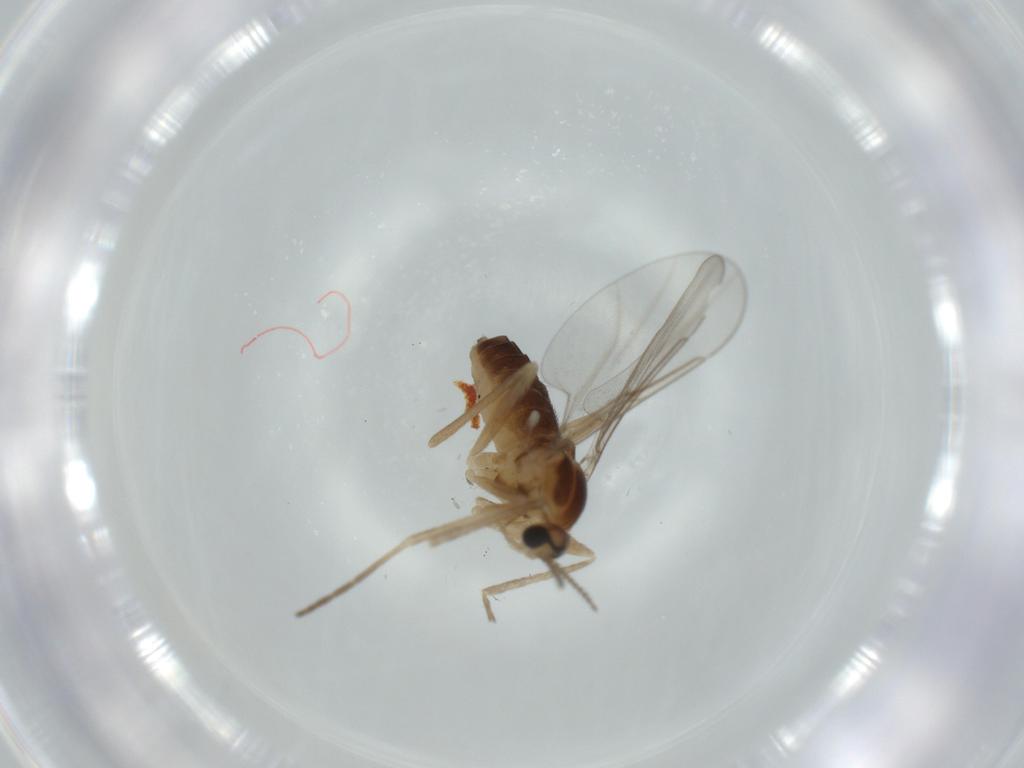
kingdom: Animalia
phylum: Arthropoda
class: Insecta
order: Diptera
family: Cecidomyiidae
